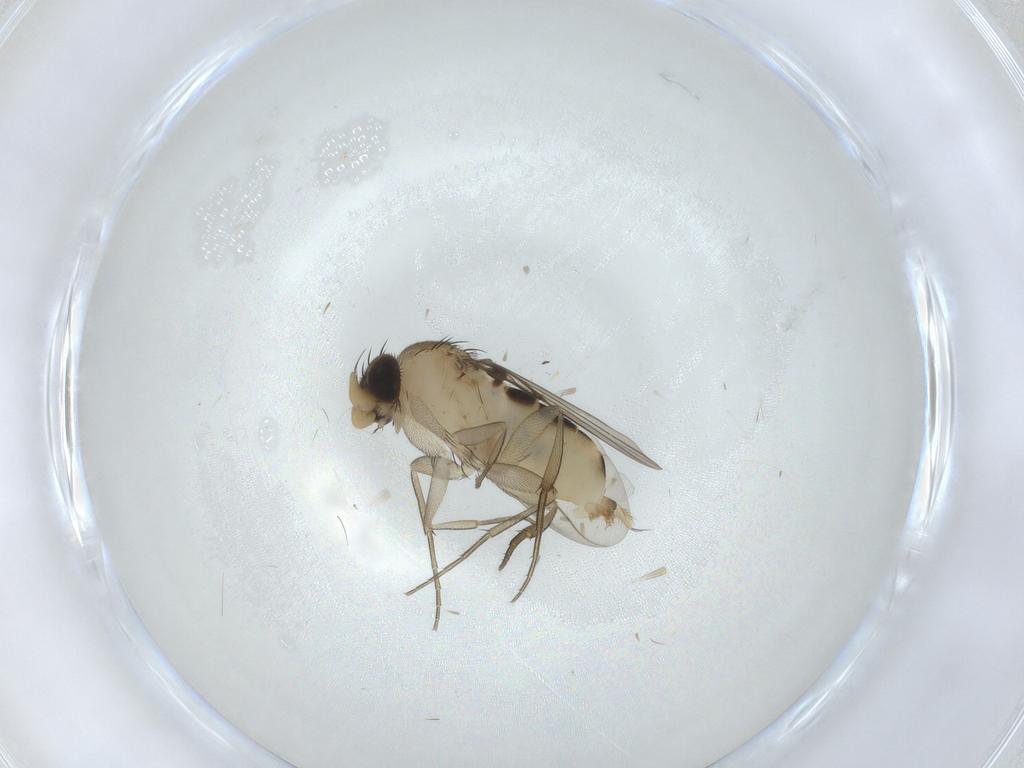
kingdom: Animalia
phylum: Arthropoda
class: Insecta
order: Diptera
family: Phoridae
